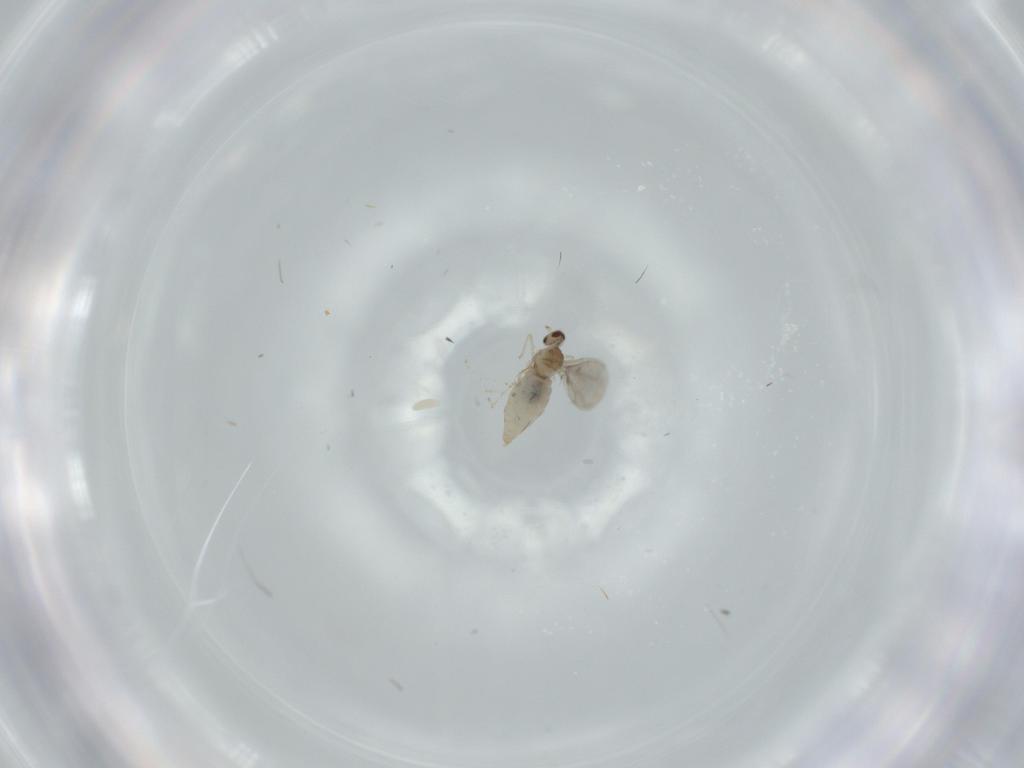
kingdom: Animalia
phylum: Arthropoda
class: Insecta
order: Diptera
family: Cecidomyiidae
